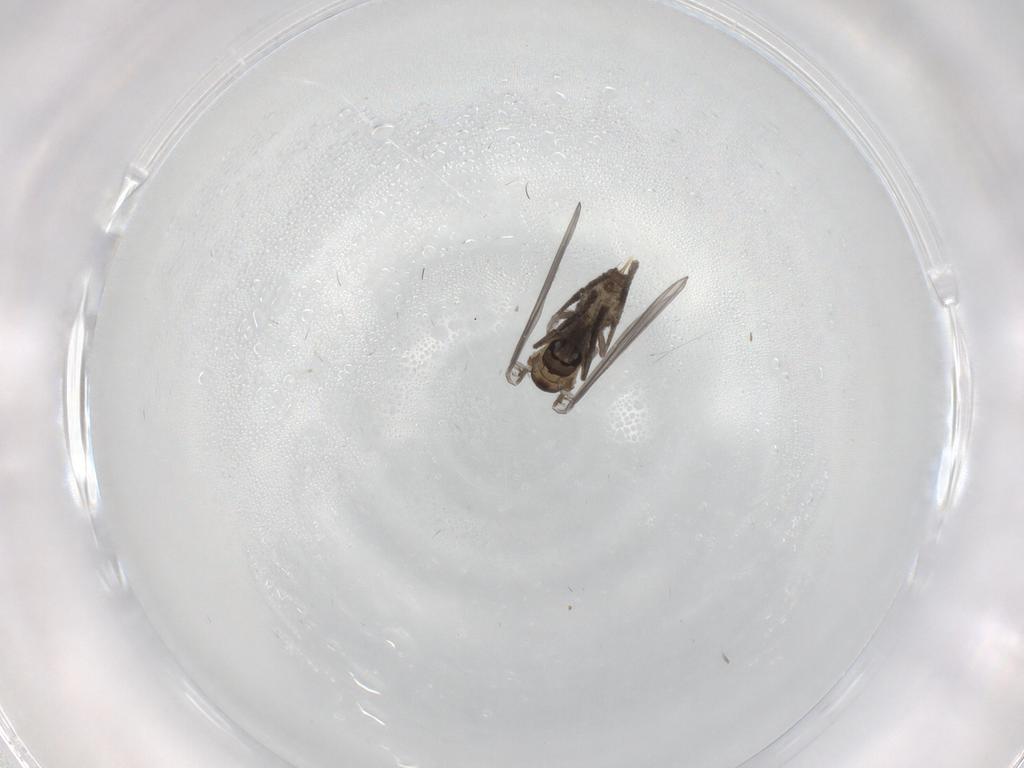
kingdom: Animalia
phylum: Arthropoda
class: Insecta
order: Diptera
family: Psychodidae
